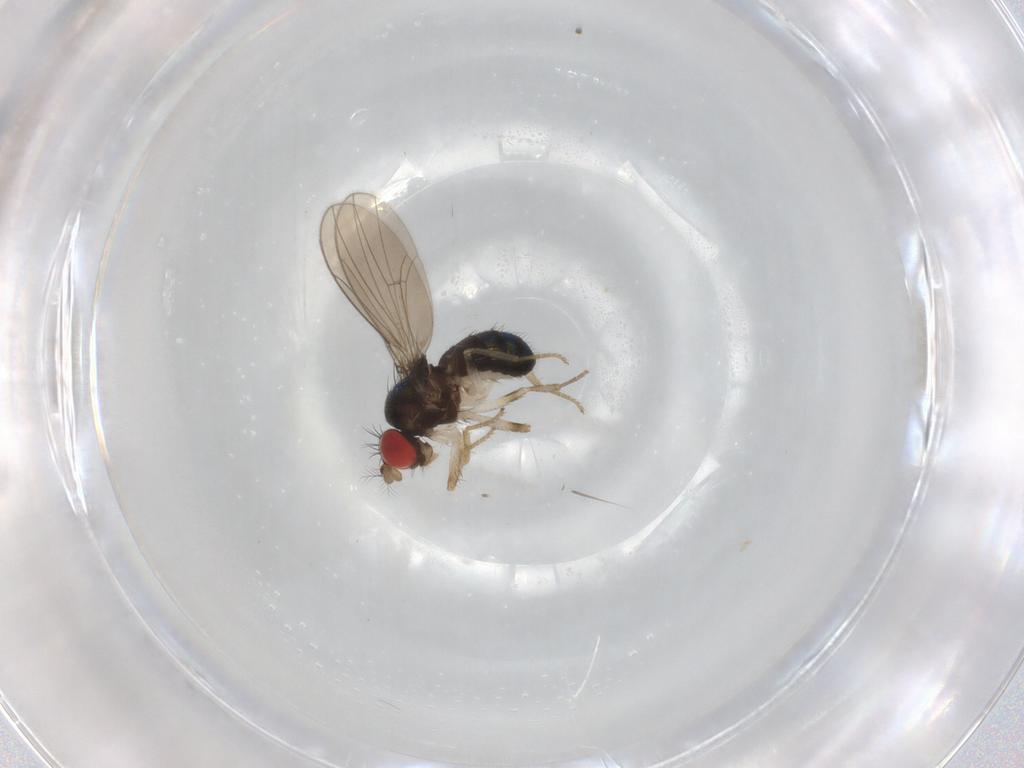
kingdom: Animalia
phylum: Arthropoda
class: Insecta
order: Diptera
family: Drosophilidae
